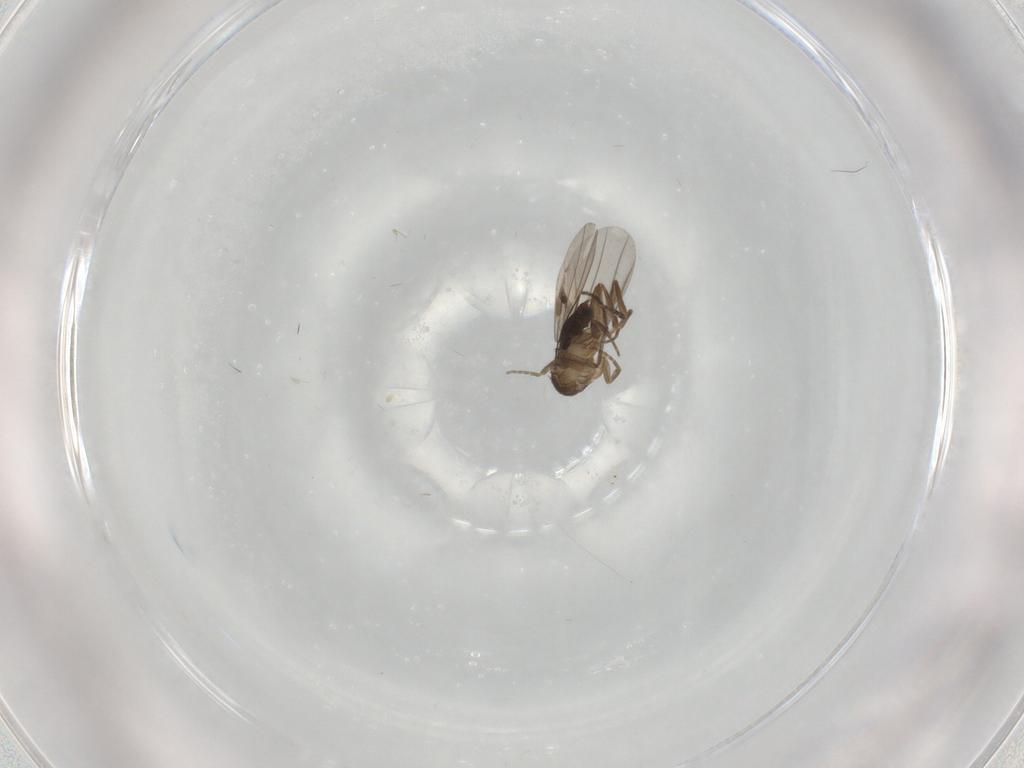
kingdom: Animalia
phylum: Arthropoda
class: Insecta
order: Diptera
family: Phoridae
